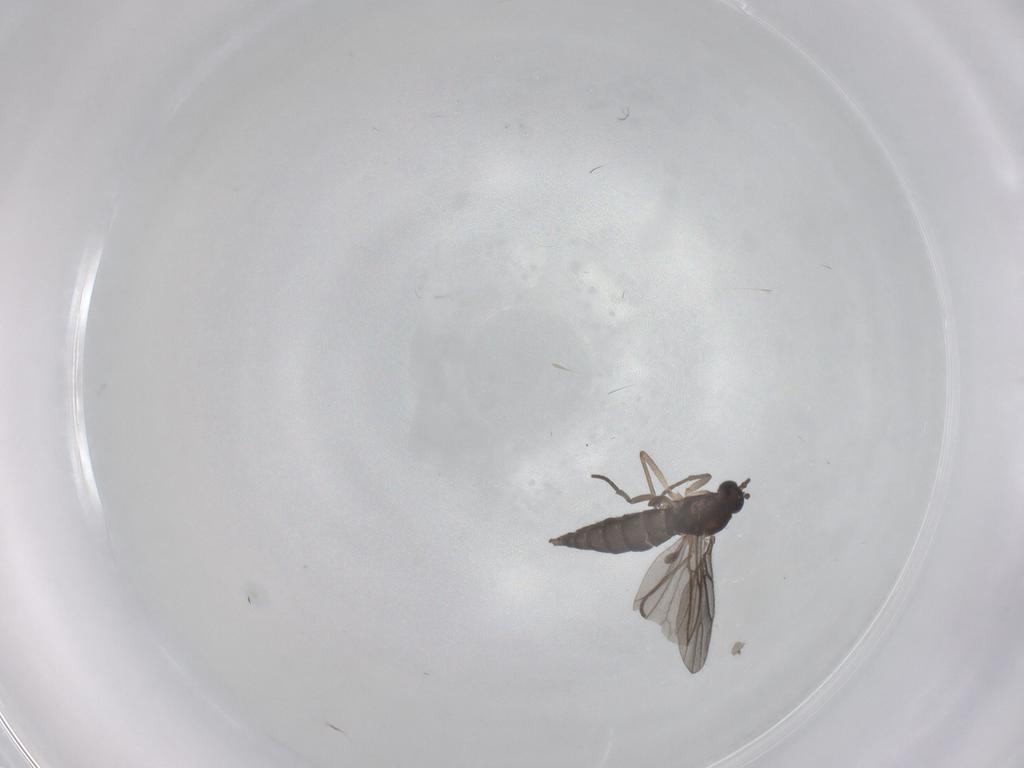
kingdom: Animalia
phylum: Arthropoda
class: Insecta
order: Diptera
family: Sciaridae
